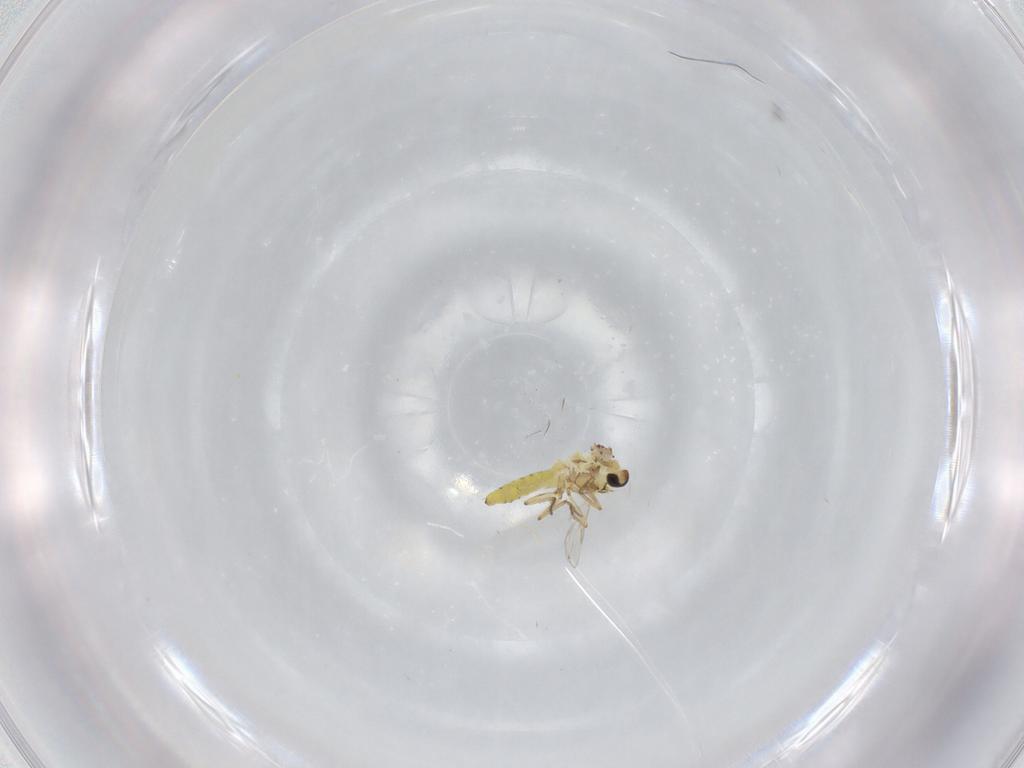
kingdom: Animalia
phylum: Arthropoda
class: Insecta
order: Diptera
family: Ceratopogonidae
